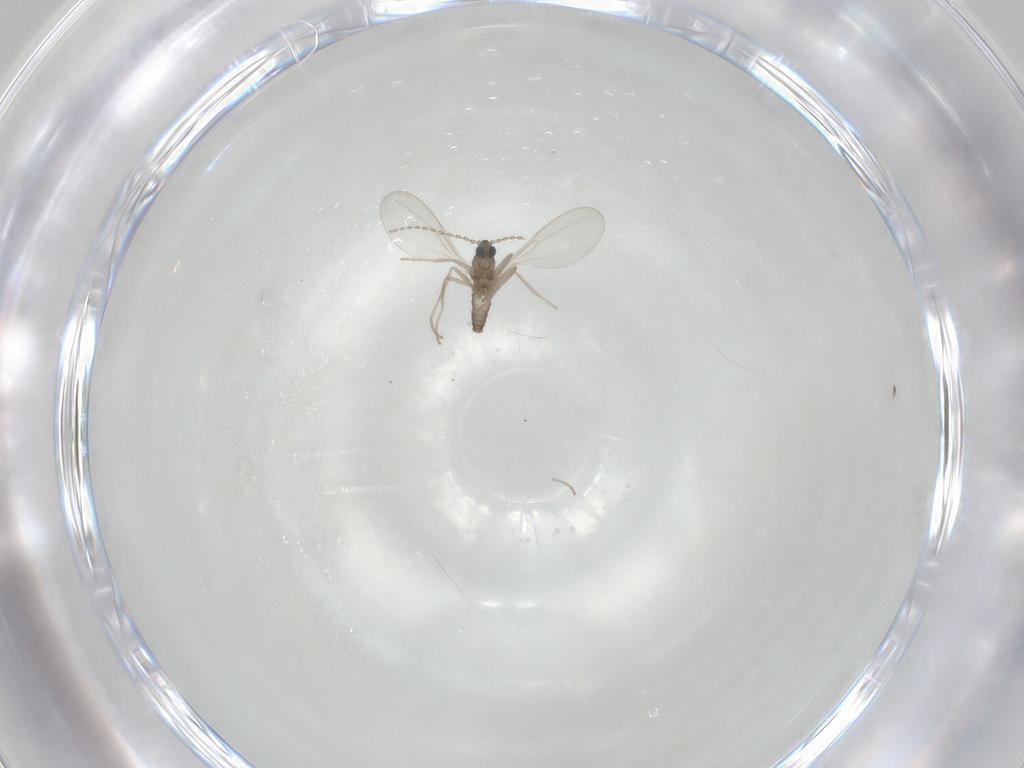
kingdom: Animalia
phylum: Arthropoda
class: Insecta
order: Diptera
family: Cecidomyiidae
